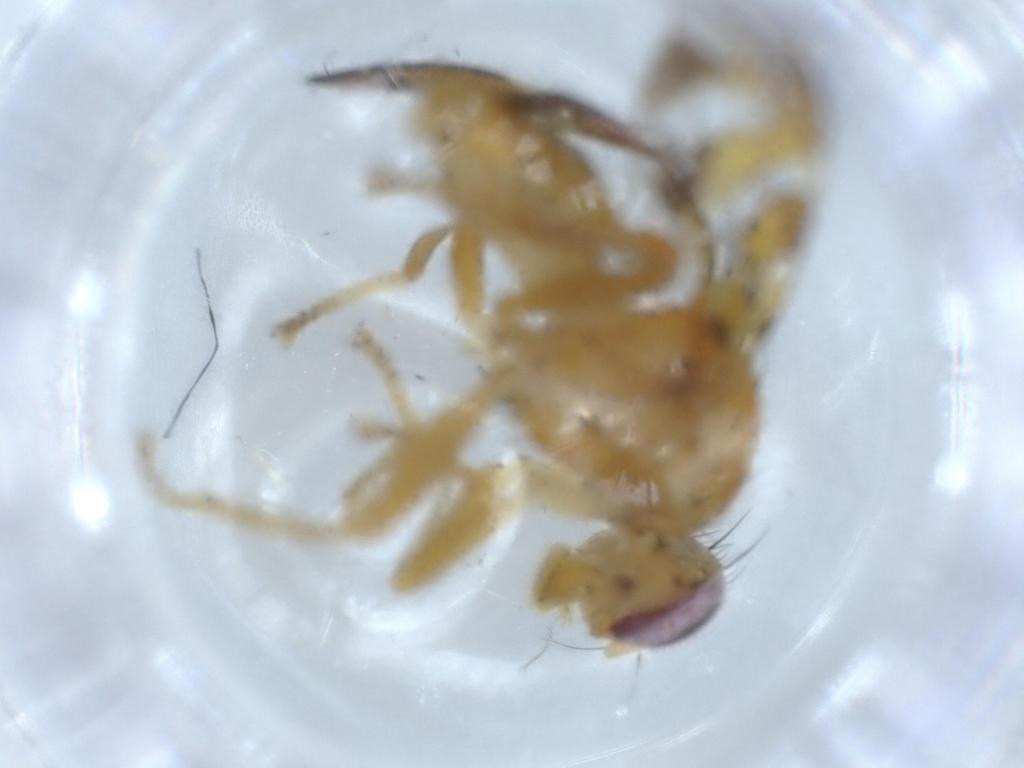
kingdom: Animalia
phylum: Arthropoda
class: Insecta
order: Diptera
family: Tephritidae
